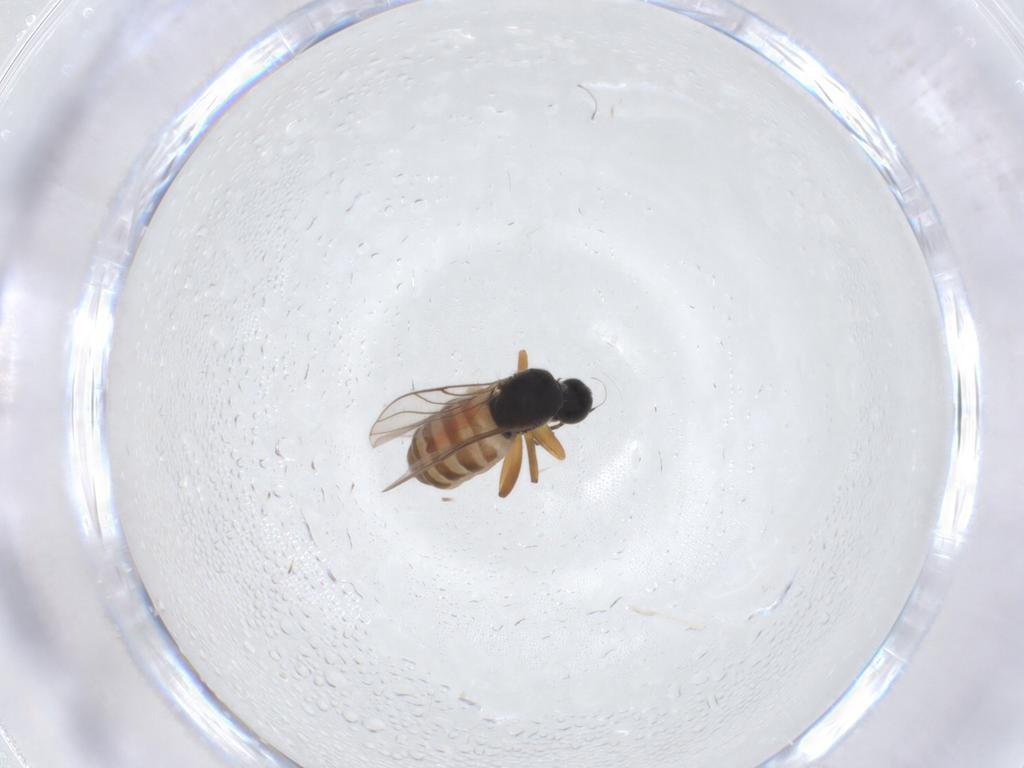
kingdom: Animalia
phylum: Arthropoda
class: Insecta
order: Diptera
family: Hybotidae
